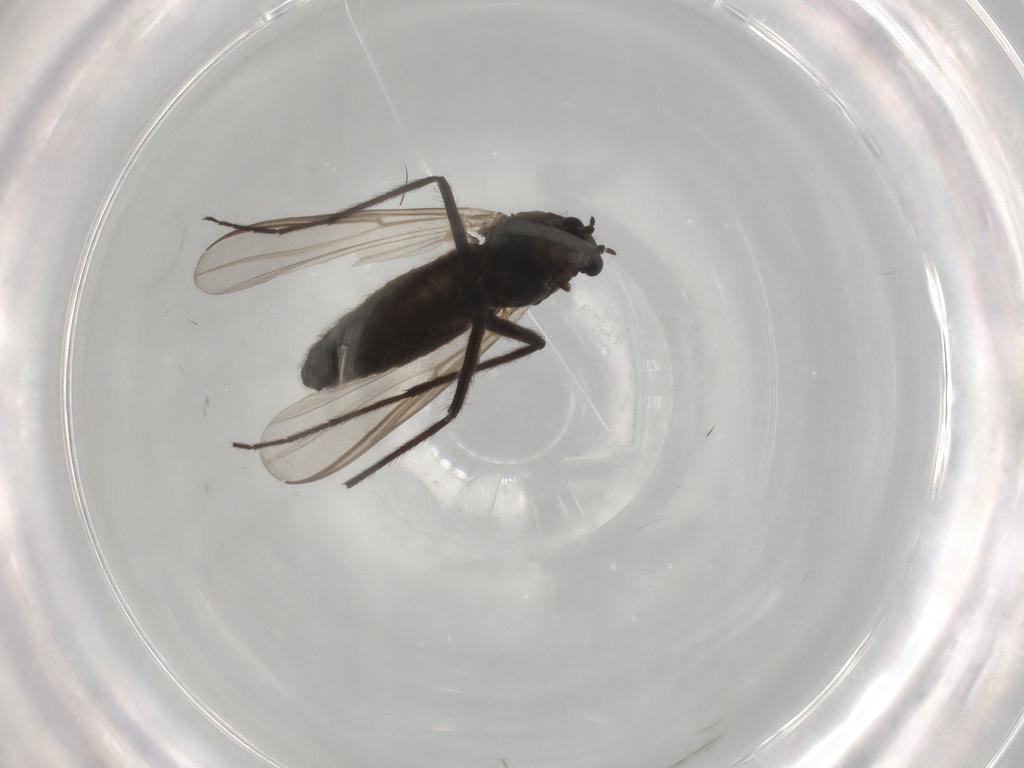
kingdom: Animalia
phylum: Arthropoda
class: Insecta
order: Diptera
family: Chironomidae
